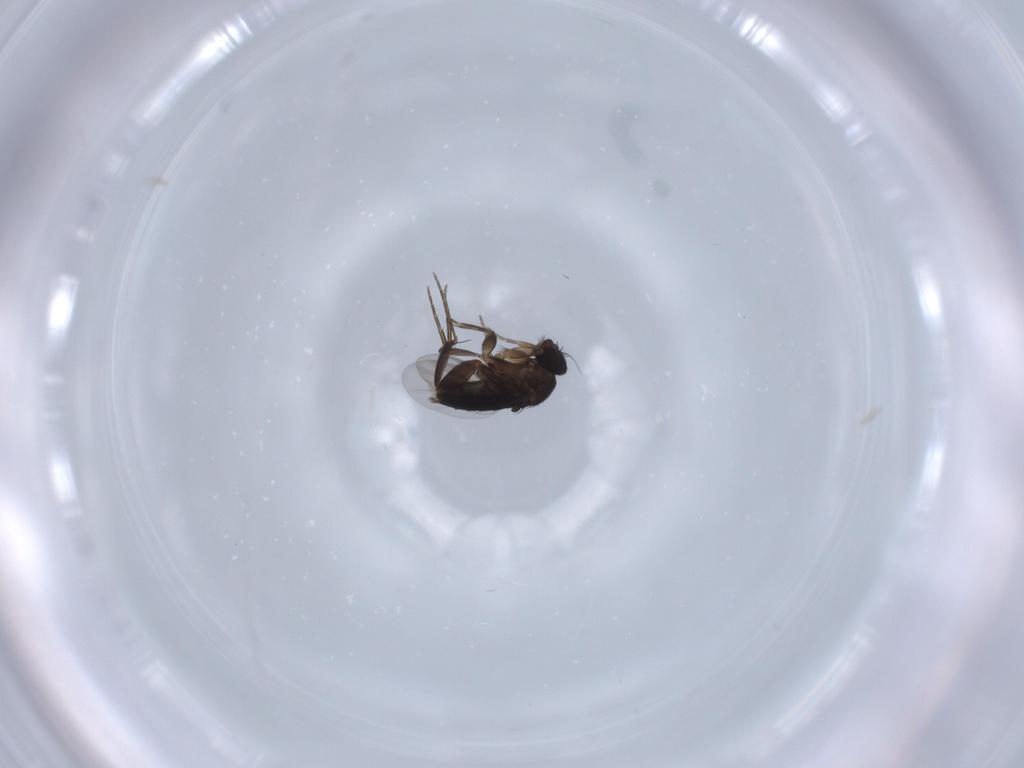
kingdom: Animalia
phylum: Arthropoda
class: Insecta
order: Diptera
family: Phoridae
